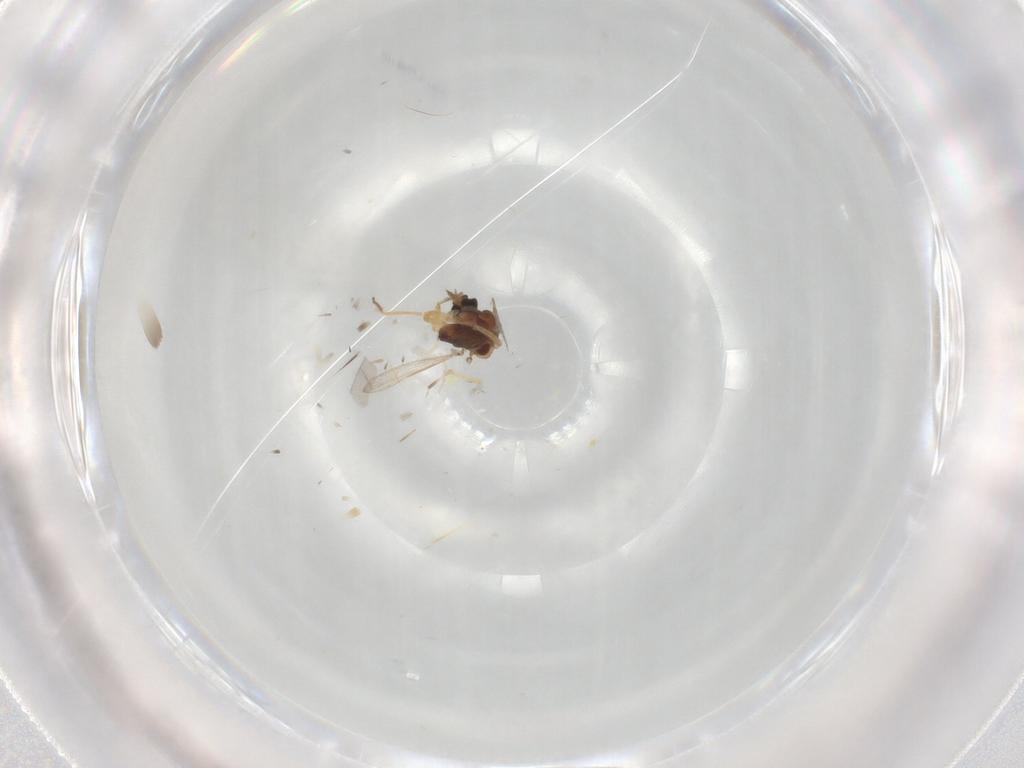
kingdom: Animalia
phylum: Arthropoda
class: Insecta
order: Diptera
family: Ceratopogonidae
